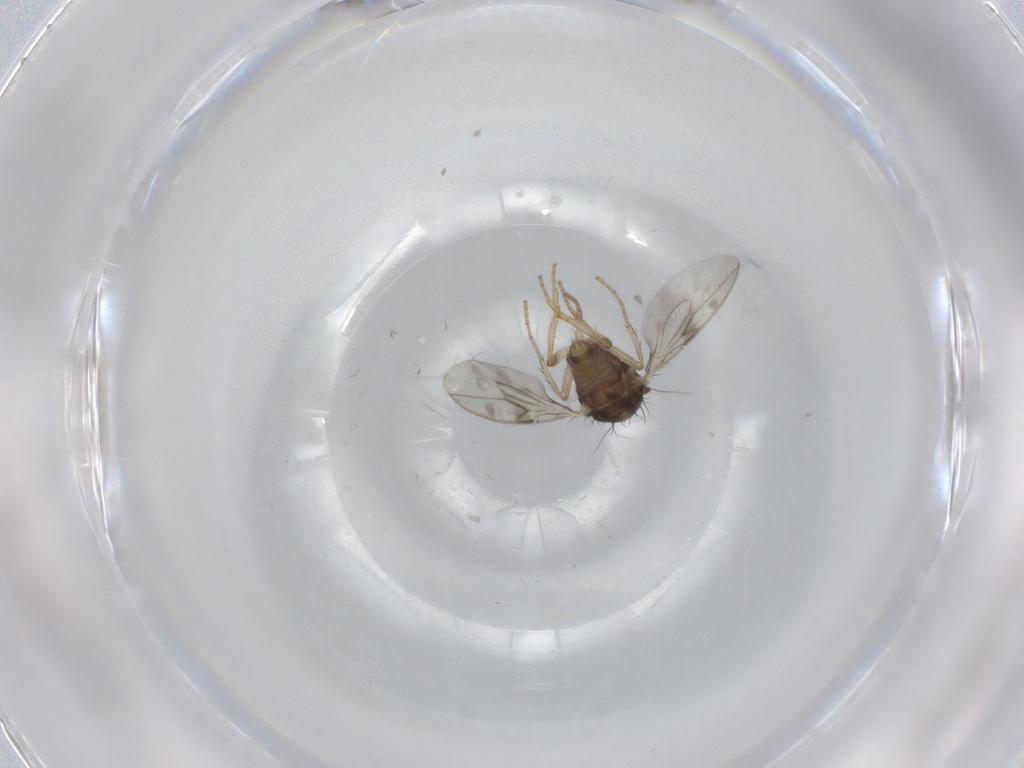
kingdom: Animalia
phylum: Arthropoda
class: Insecta
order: Diptera
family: Sphaeroceridae
